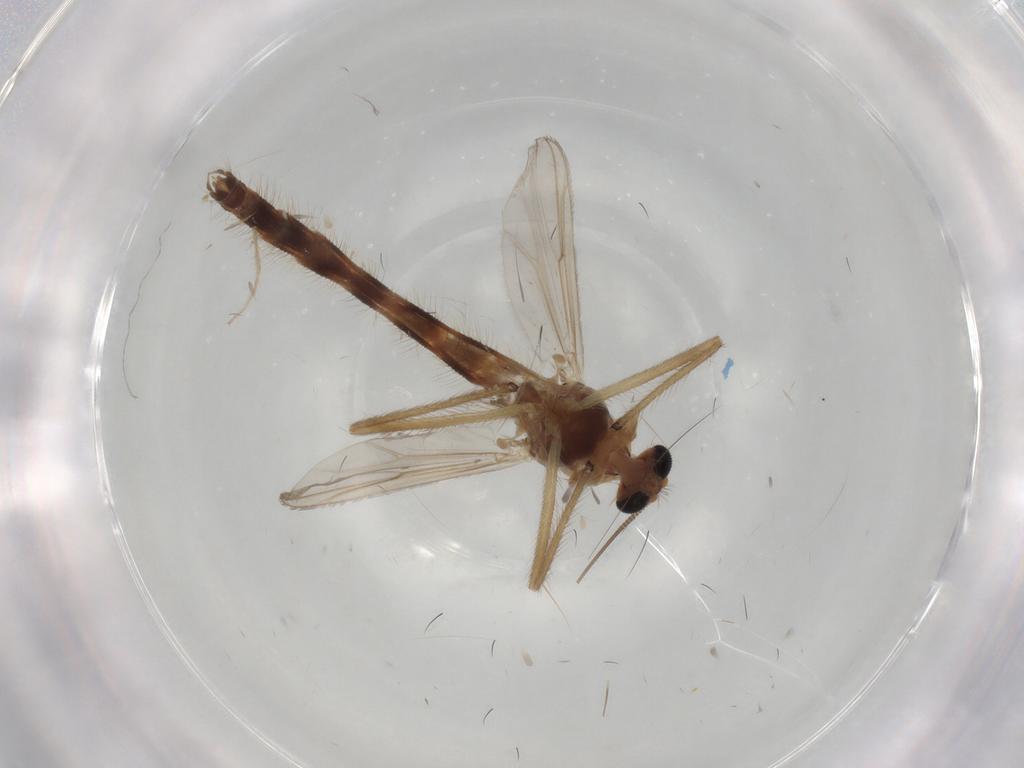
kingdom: Animalia
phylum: Arthropoda
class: Insecta
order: Diptera
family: Chironomidae
